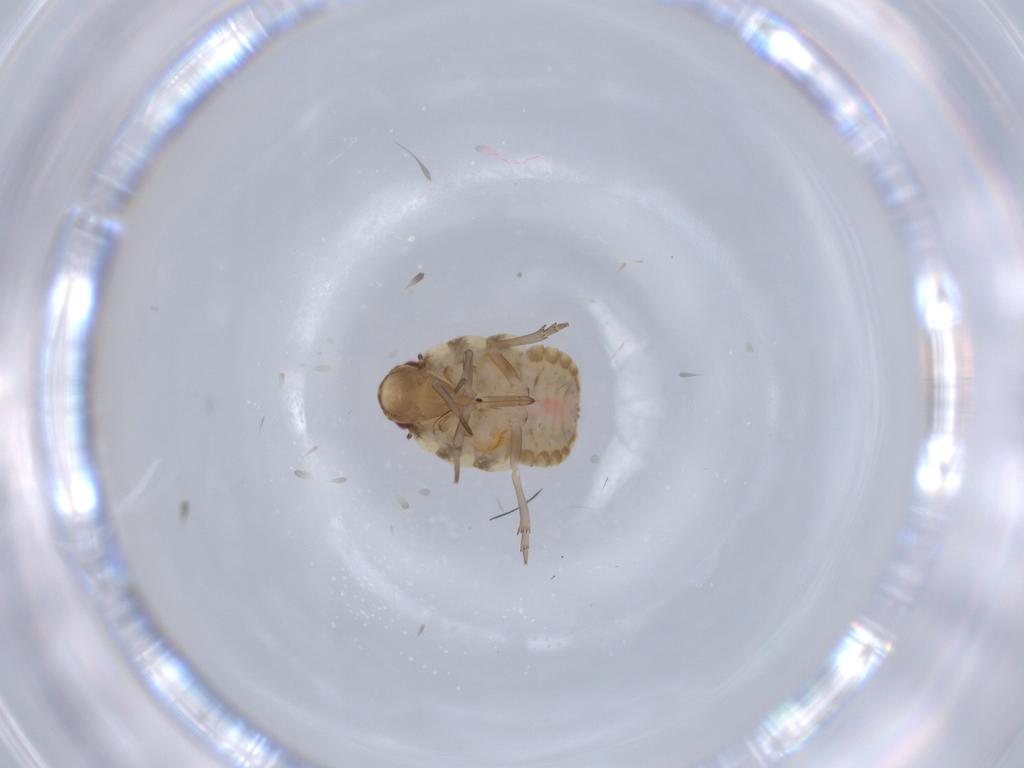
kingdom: Animalia
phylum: Arthropoda
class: Insecta
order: Hemiptera
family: Flatidae
